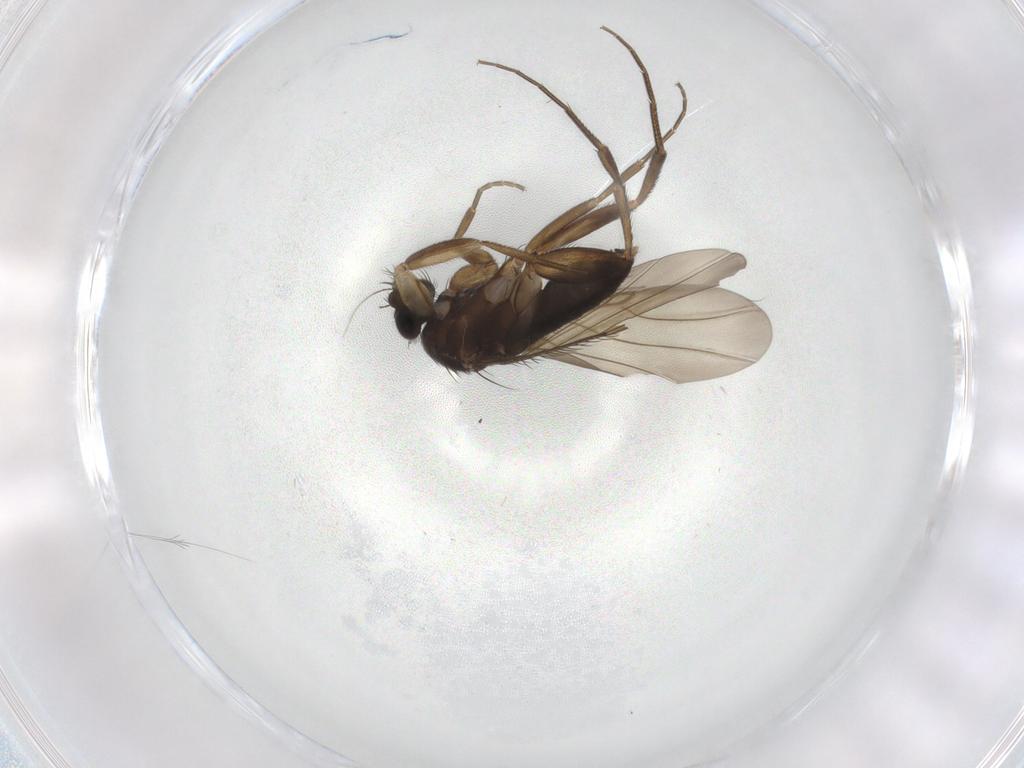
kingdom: Animalia
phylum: Arthropoda
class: Insecta
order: Diptera
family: Phoridae
